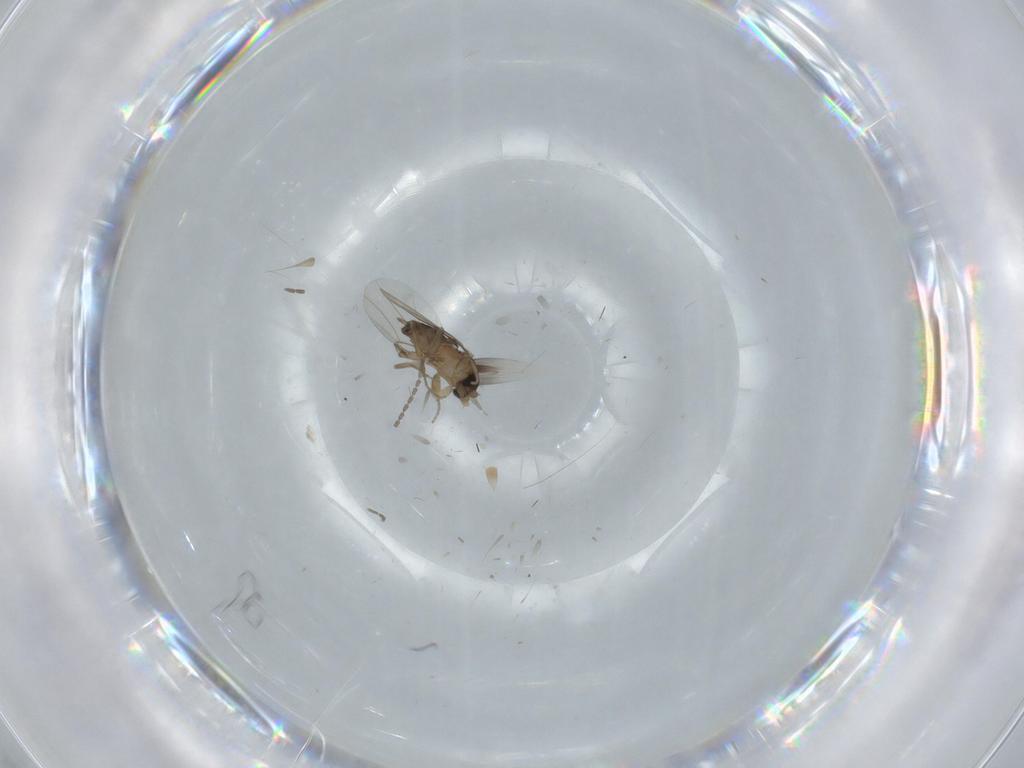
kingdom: Animalia
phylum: Arthropoda
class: Insecta
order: Diptera
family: Phoridae
